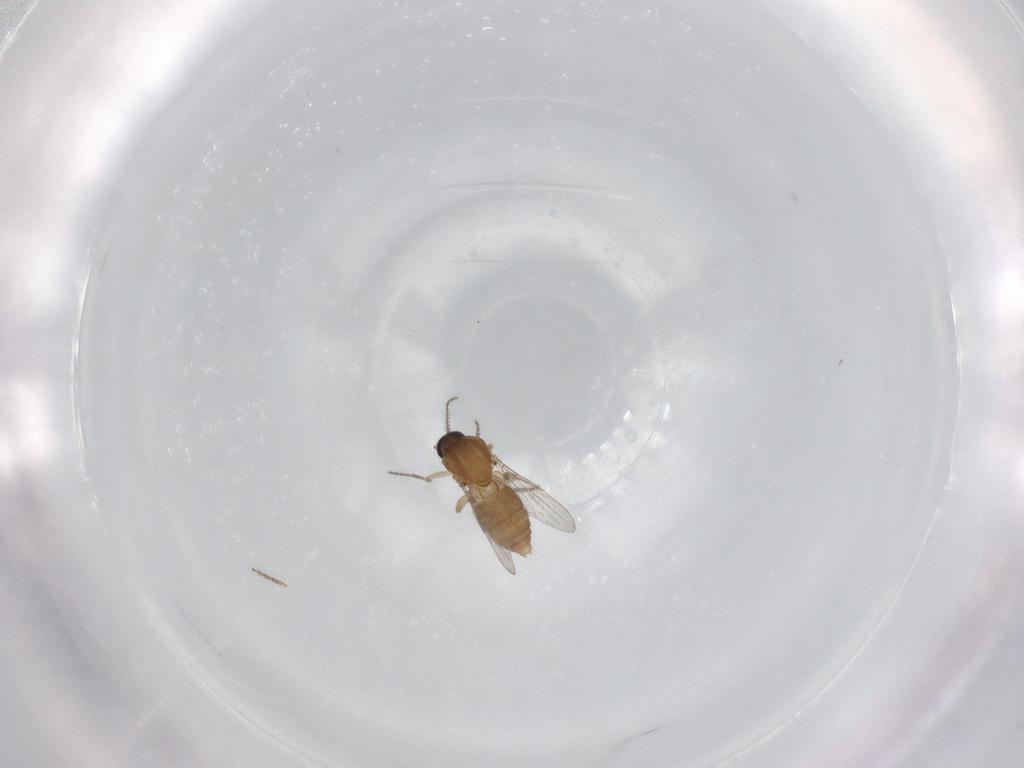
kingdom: Animalia
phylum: Arthropoda
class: Insecta
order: Diptera
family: Ceratopogonidae
